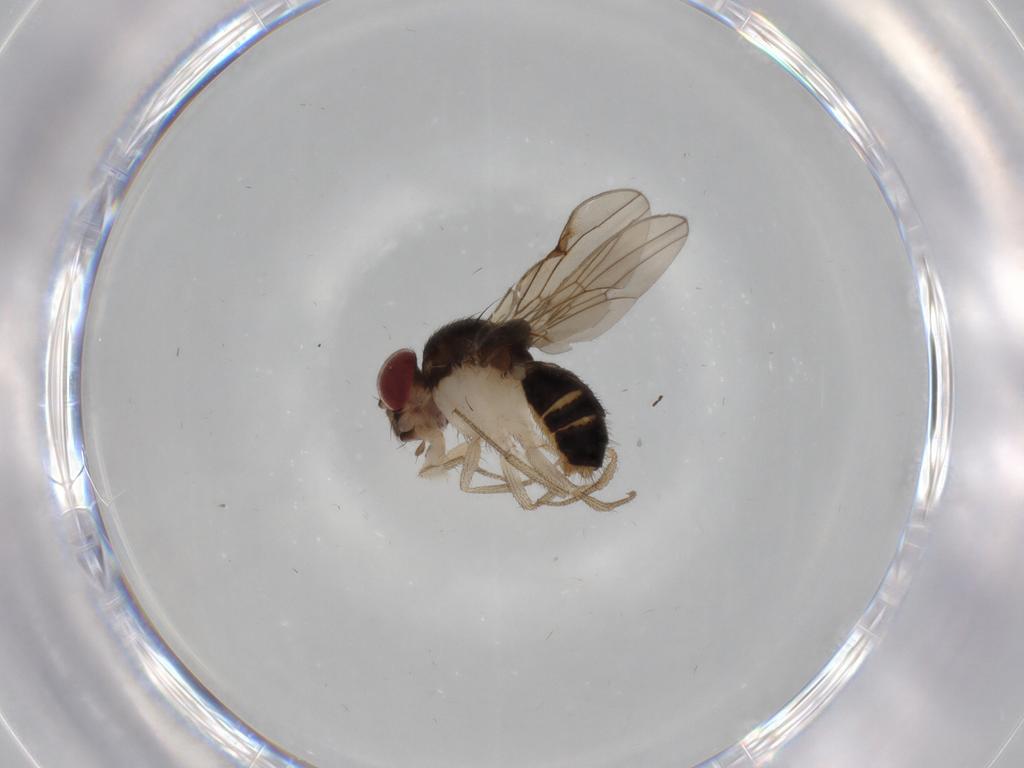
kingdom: Animalia
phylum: Arthropoda
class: Insecta
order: Diptera
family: Drosophilidae
